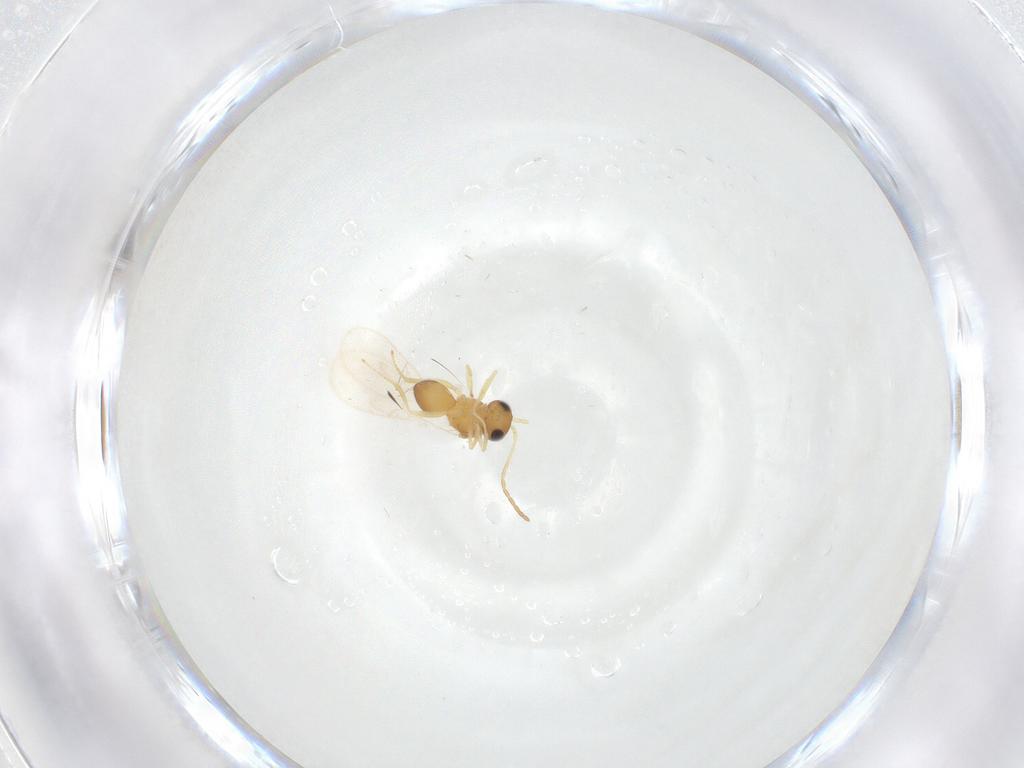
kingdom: Animalia
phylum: Arthropoda
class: Insecta
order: Hymenoptera
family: Figitidae
